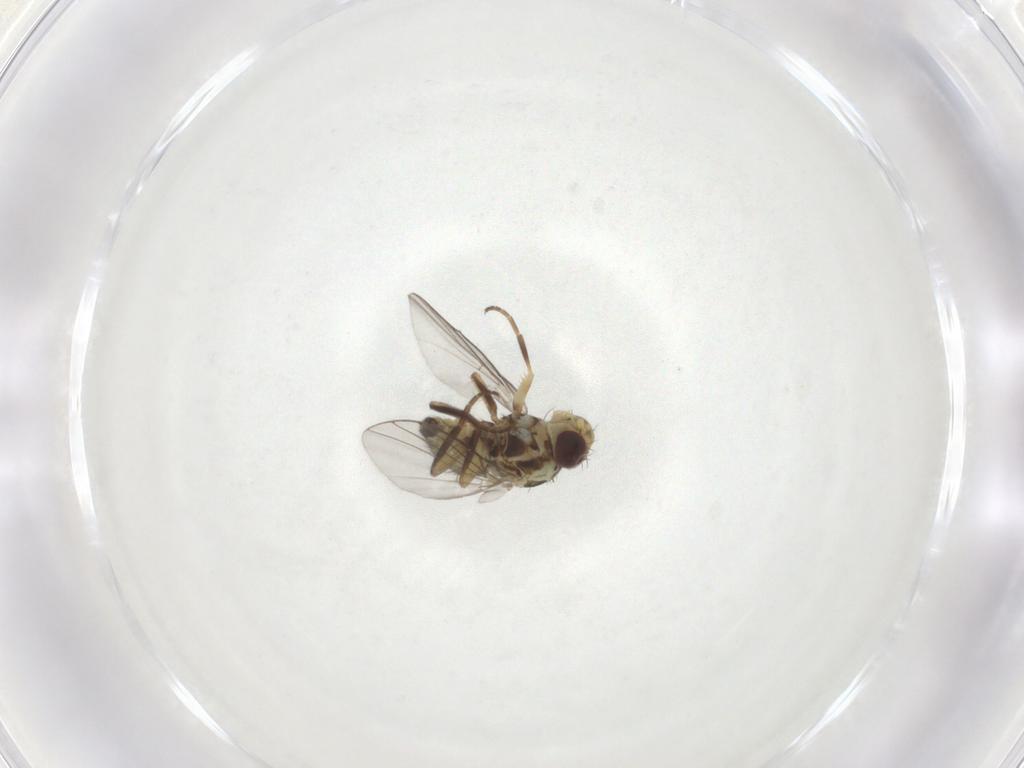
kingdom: Animalia
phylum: Arthropoda
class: Insecta
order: Diptera
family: Agromyzidae
